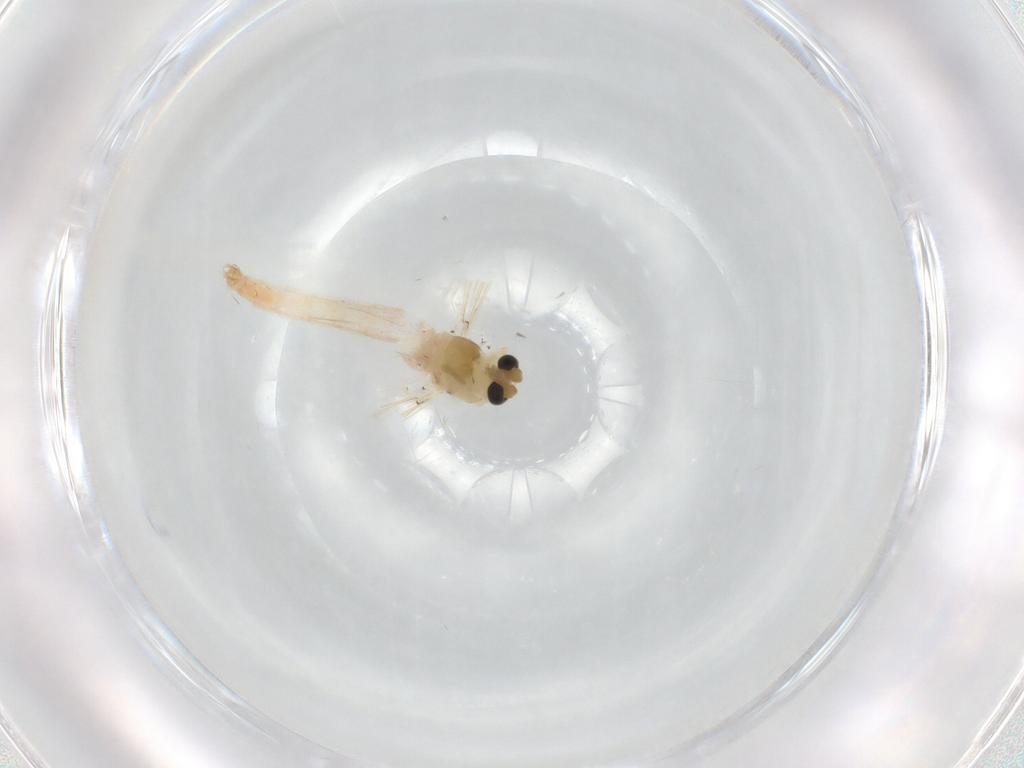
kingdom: Animalia
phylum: Arthropoda
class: Insecta
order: Diptera
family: Chironomidae
